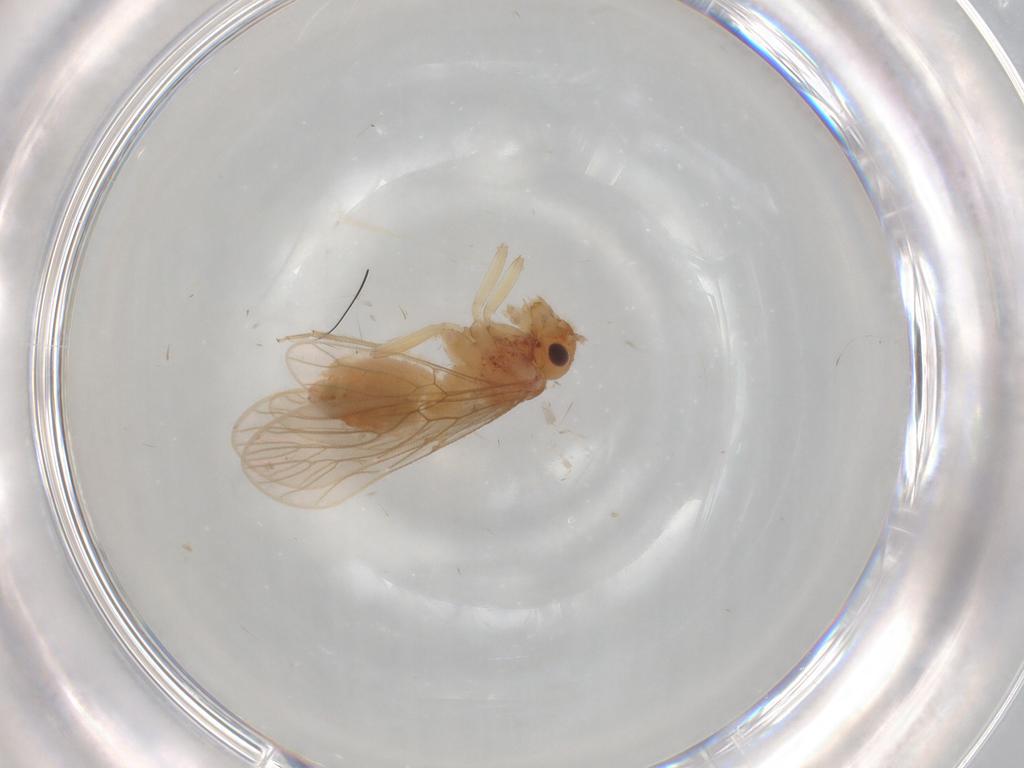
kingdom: Animalia
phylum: Arthropoda
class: Insecta
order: Psocodea
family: Epipsocidae
